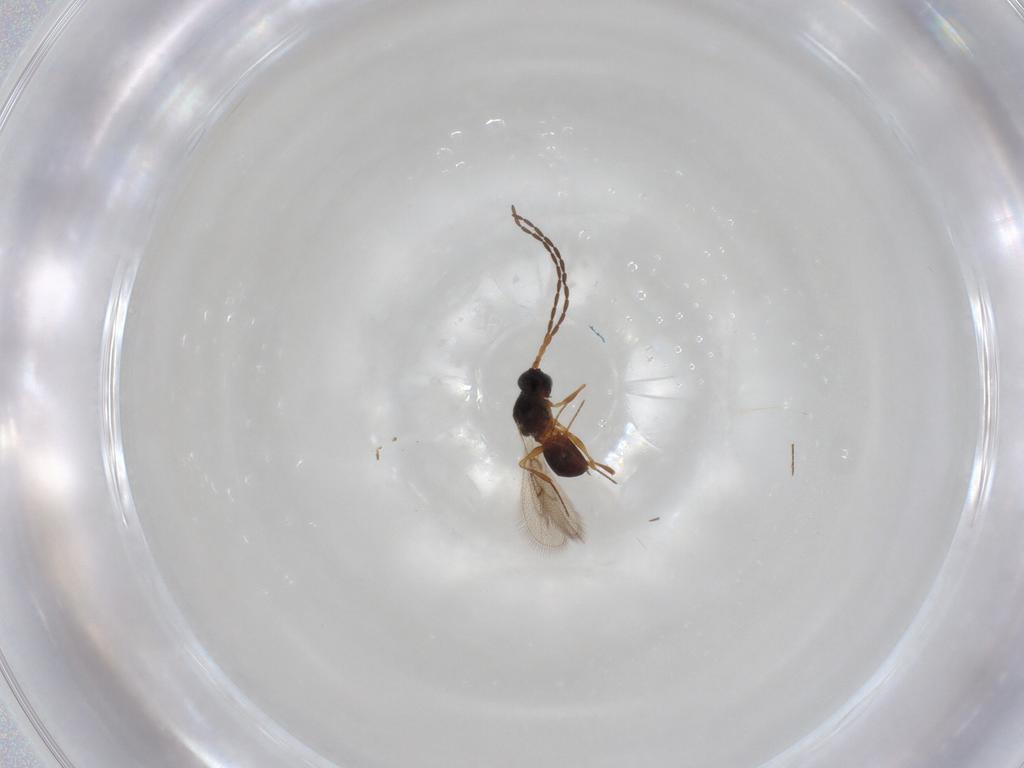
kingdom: Animalia
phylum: Arthropoda
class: Insecta
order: Hymenoptera
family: Figitidae
